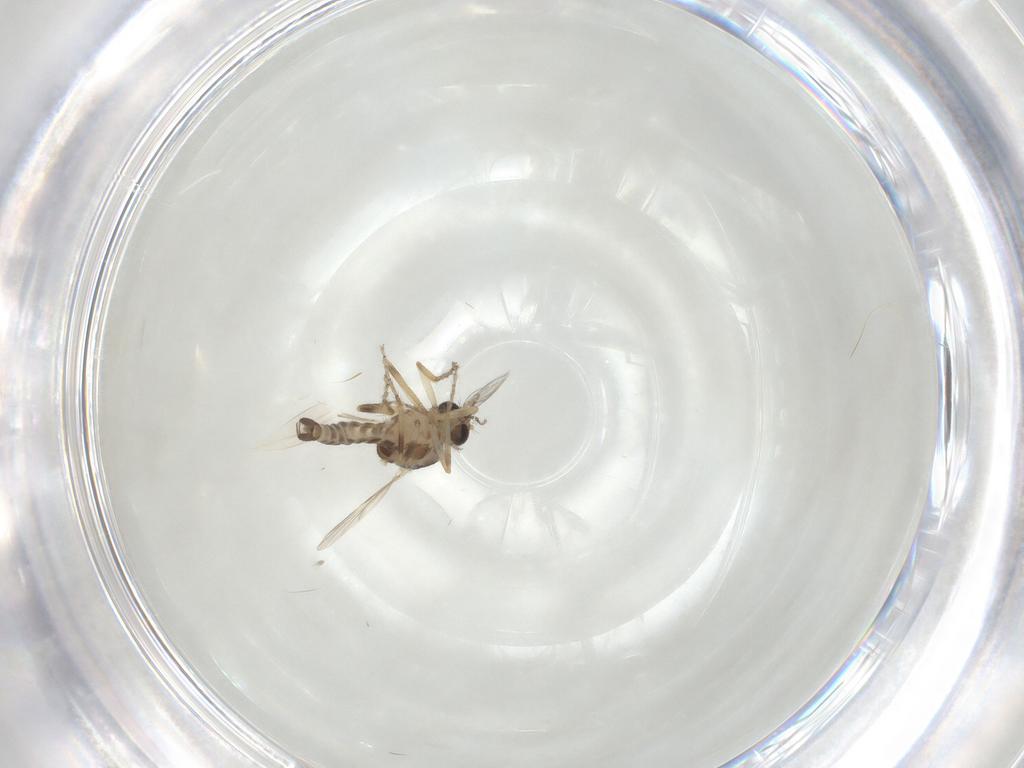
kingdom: Animalia
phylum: Arthropoda
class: Insecta
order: Diptera
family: Ceratopogonidae
